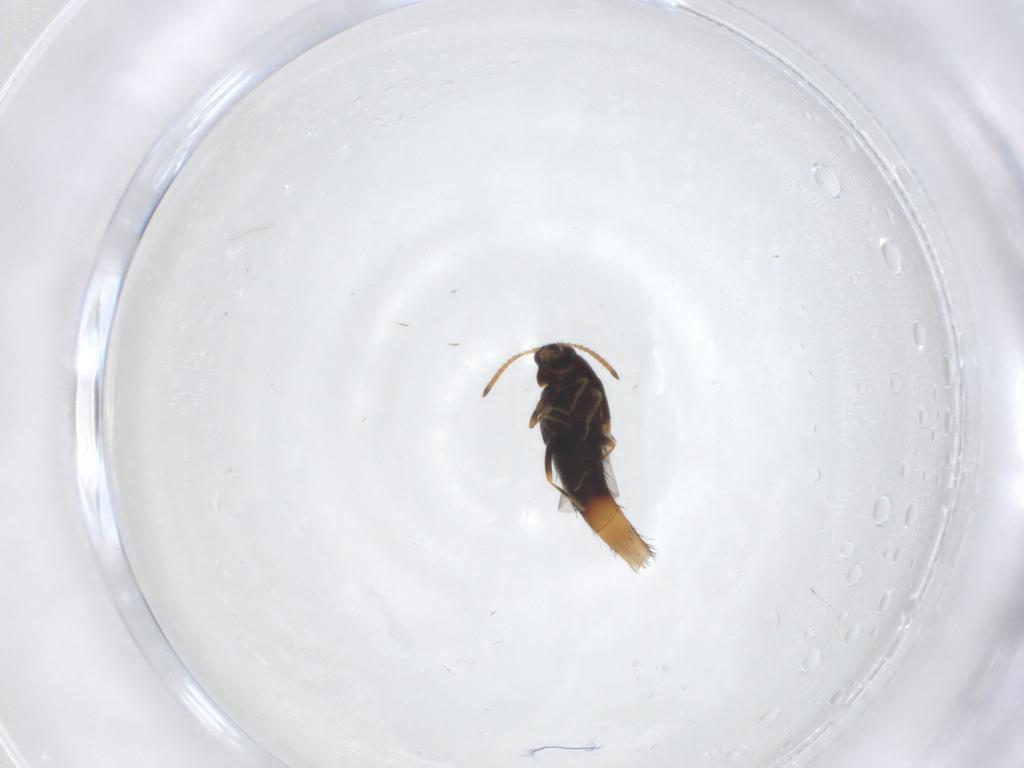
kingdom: Animalia
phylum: Arthropoda
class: Insecta
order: Coleoptera
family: Staphylinidae
